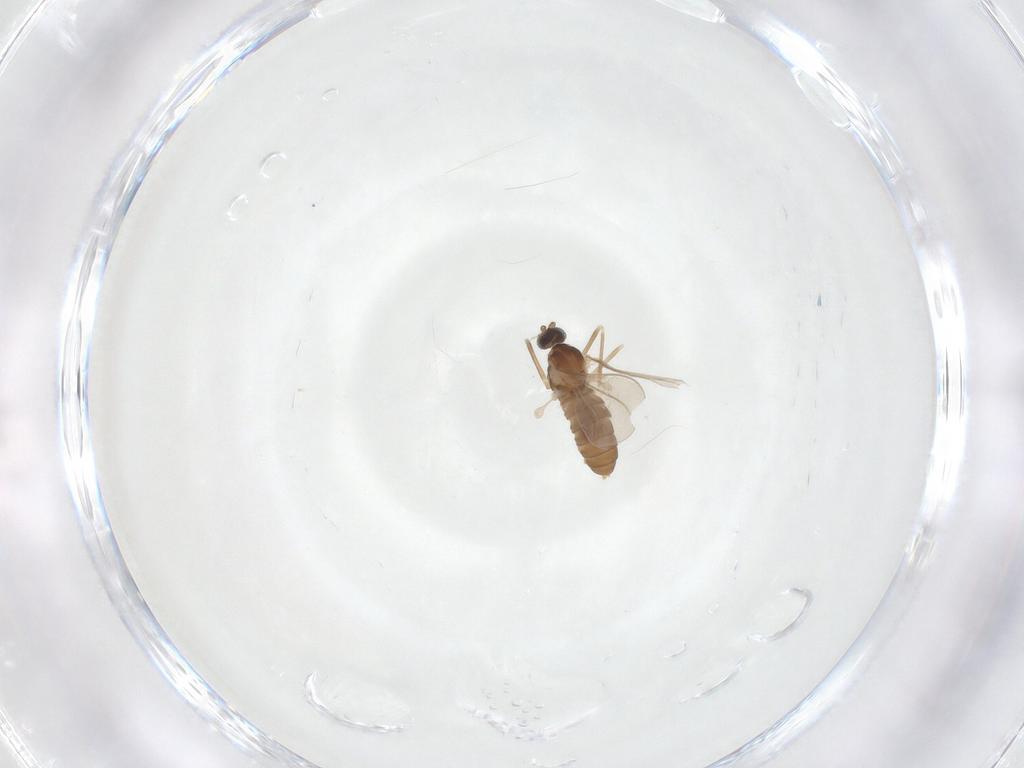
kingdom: Animalia
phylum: Arthropoda
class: Insecta
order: Diptera
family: Cecidomyiidae
